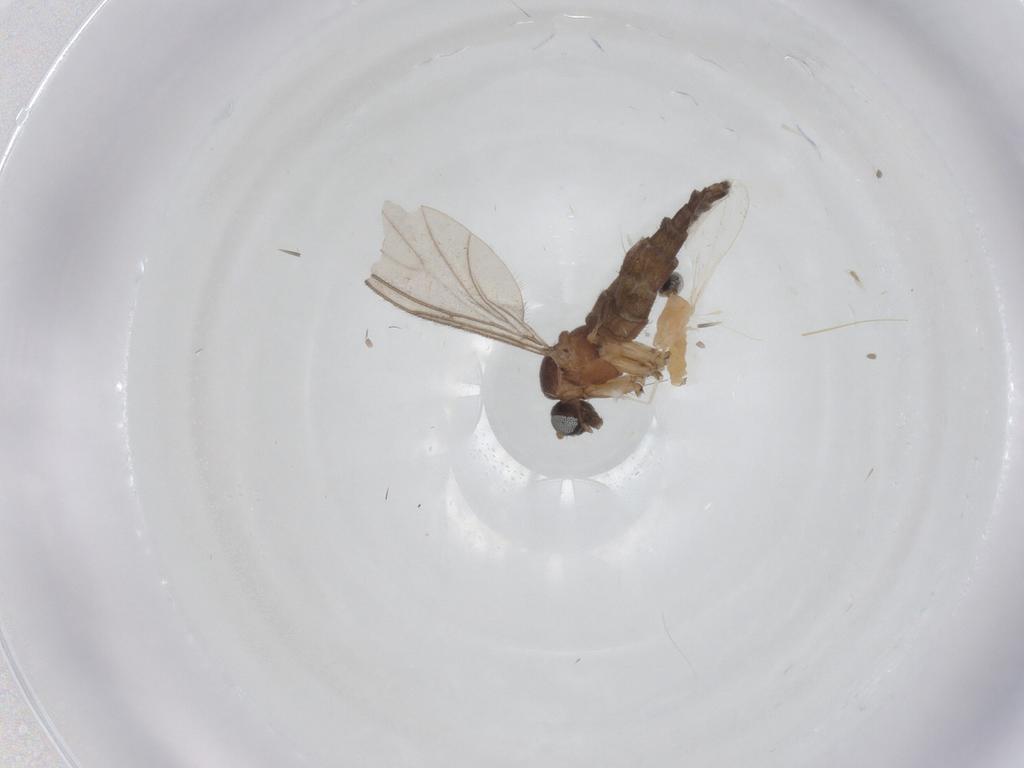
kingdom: Animalia
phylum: Arthropoda
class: Insecta
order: Diptera
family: Cecidomyiidae
